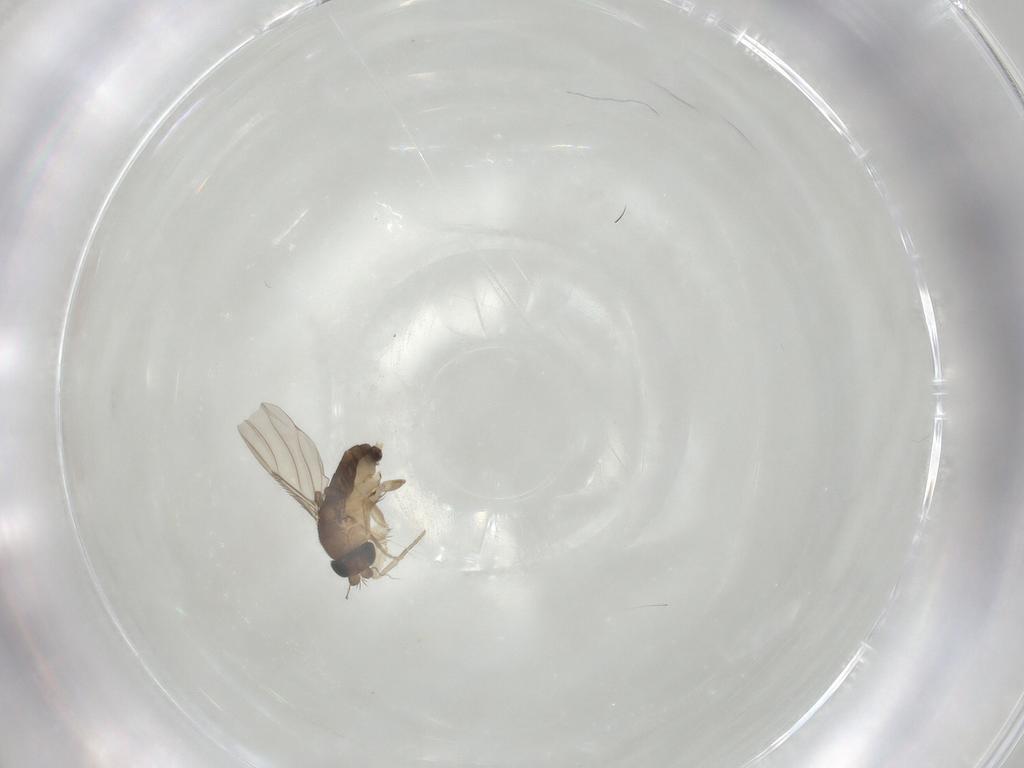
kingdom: Animalia
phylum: Arthropoda
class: Insecta
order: Diptera
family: Phoridae
